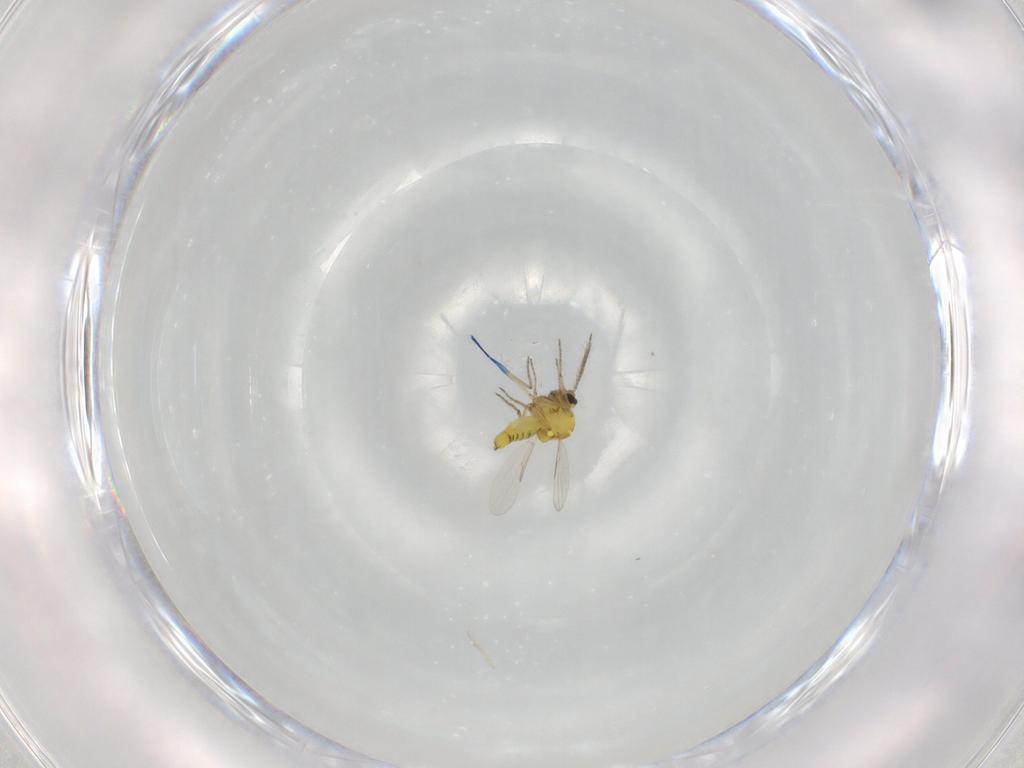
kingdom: Animalia
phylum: Arthropoda
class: Insecta
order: Diptera
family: Ceratopogonidae
